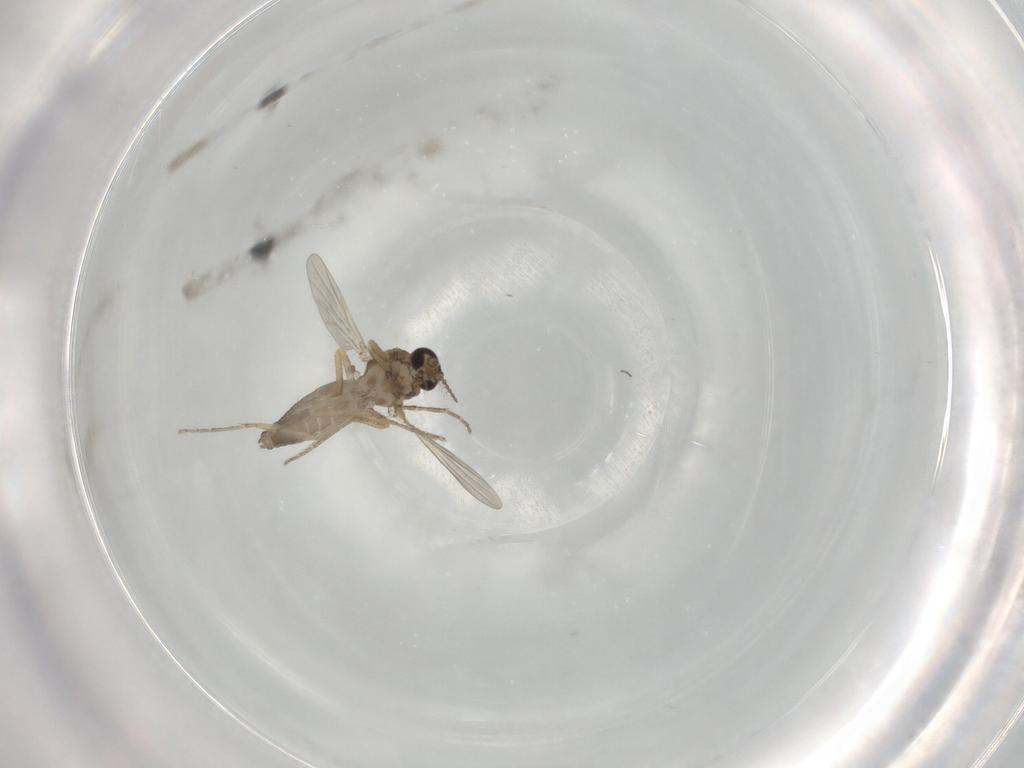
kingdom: Animalia
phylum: Arthropoda
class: Insecta
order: Diptera
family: Ceratopogonidae
